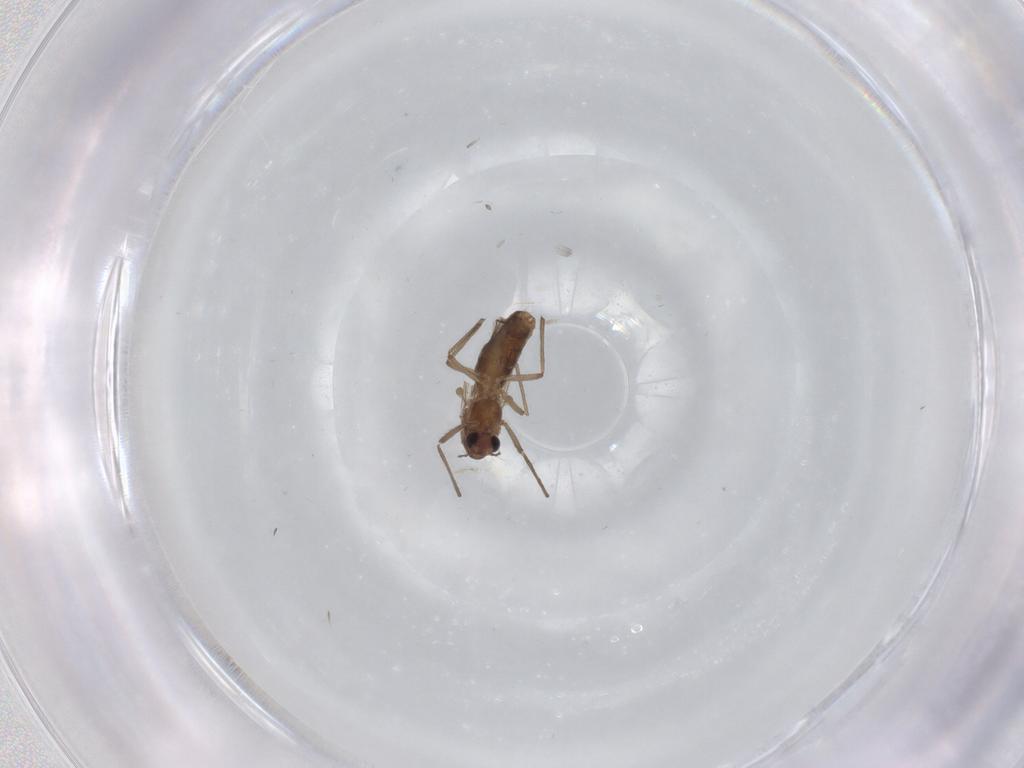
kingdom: Animalia
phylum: Arthropoda
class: Insecta
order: Diptera
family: Chironomidae
